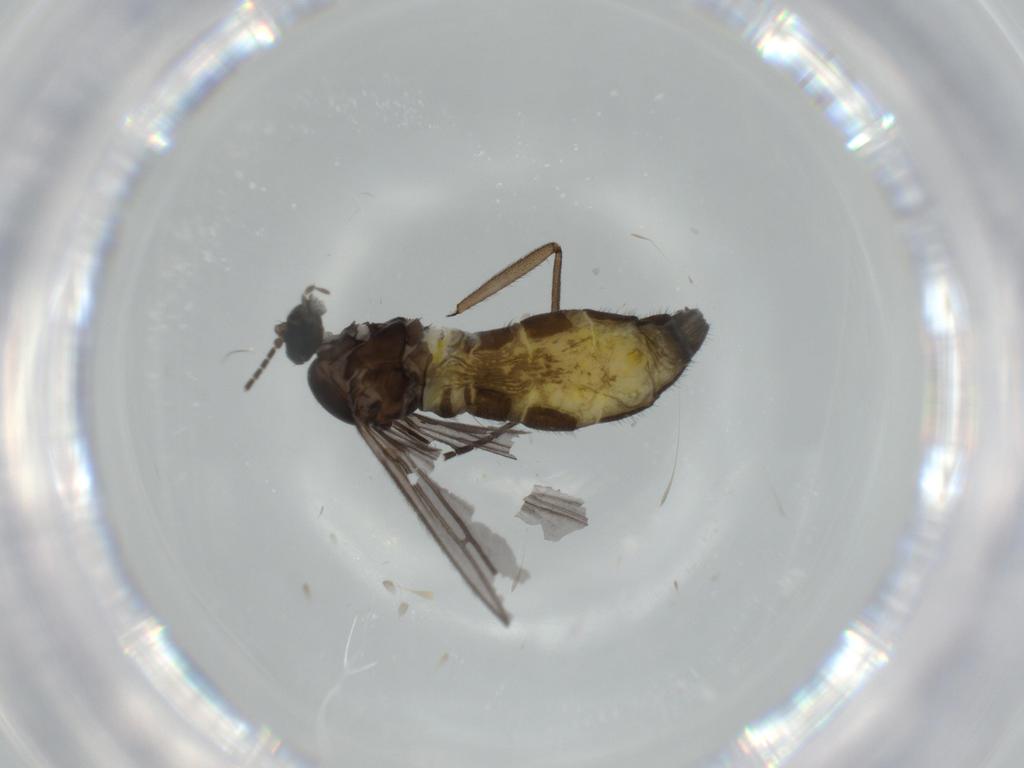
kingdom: Animalia
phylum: Arthropoda
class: Insecta
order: Diptera
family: Sciaridae
